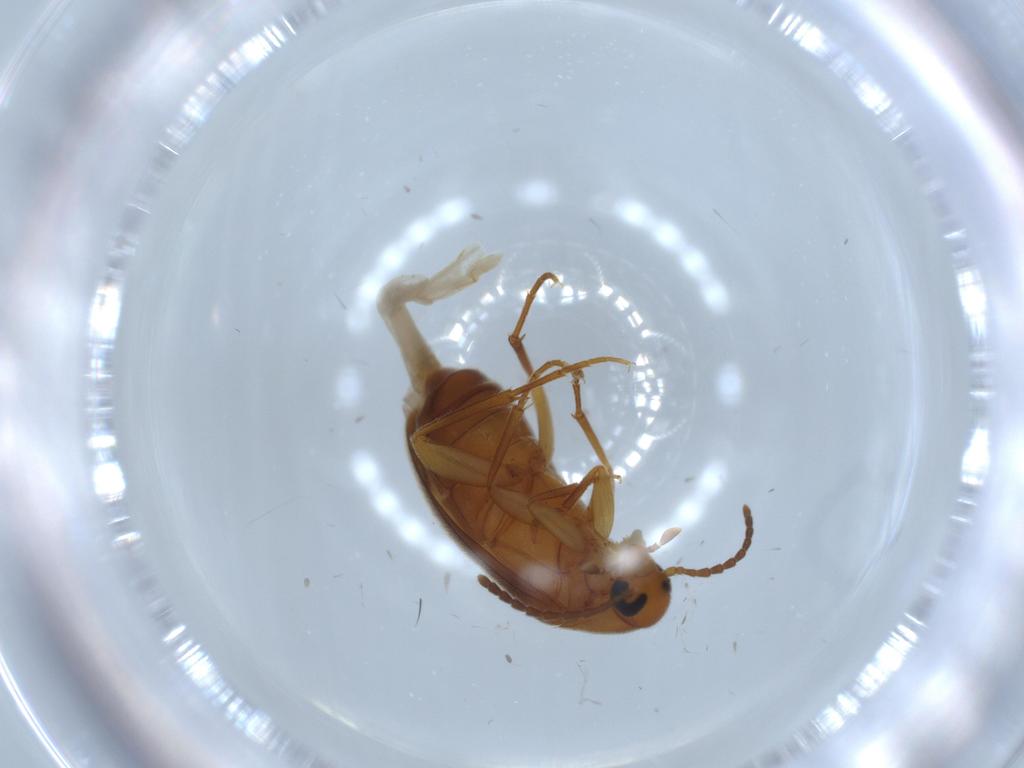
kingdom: Animalia
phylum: Arthropoda
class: Insecta
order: Coleoptera
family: Scraptiidae
